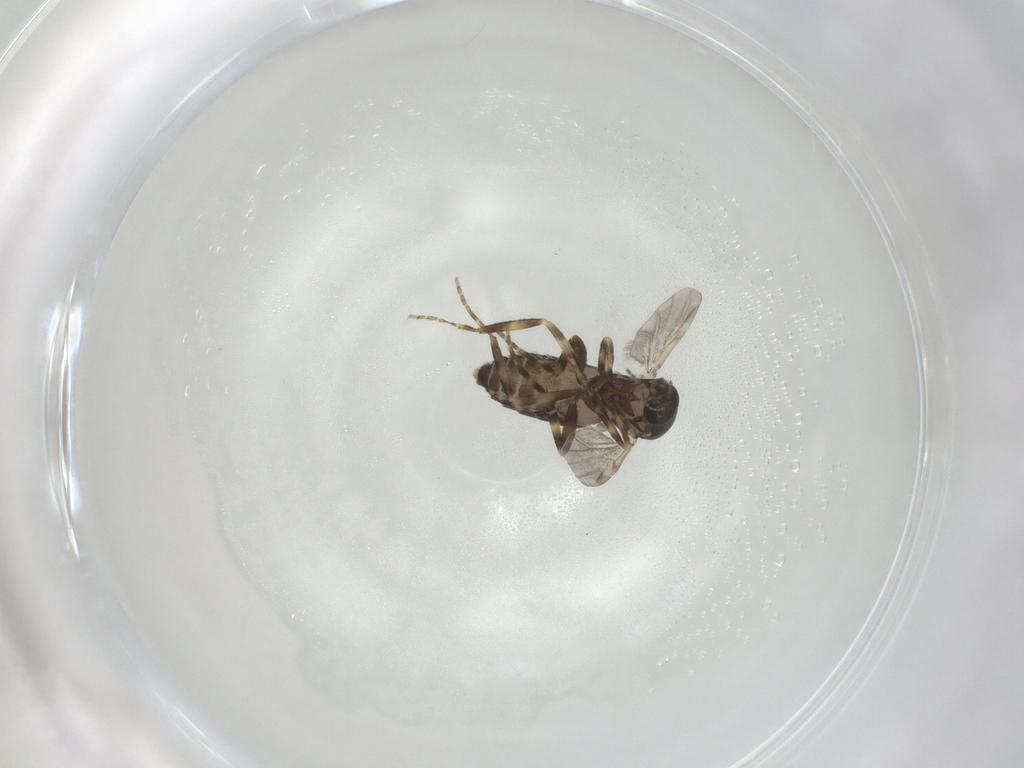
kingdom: Animalia
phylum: Arthropoda
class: Insecta
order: Diptera
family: Ceratopogonidae
